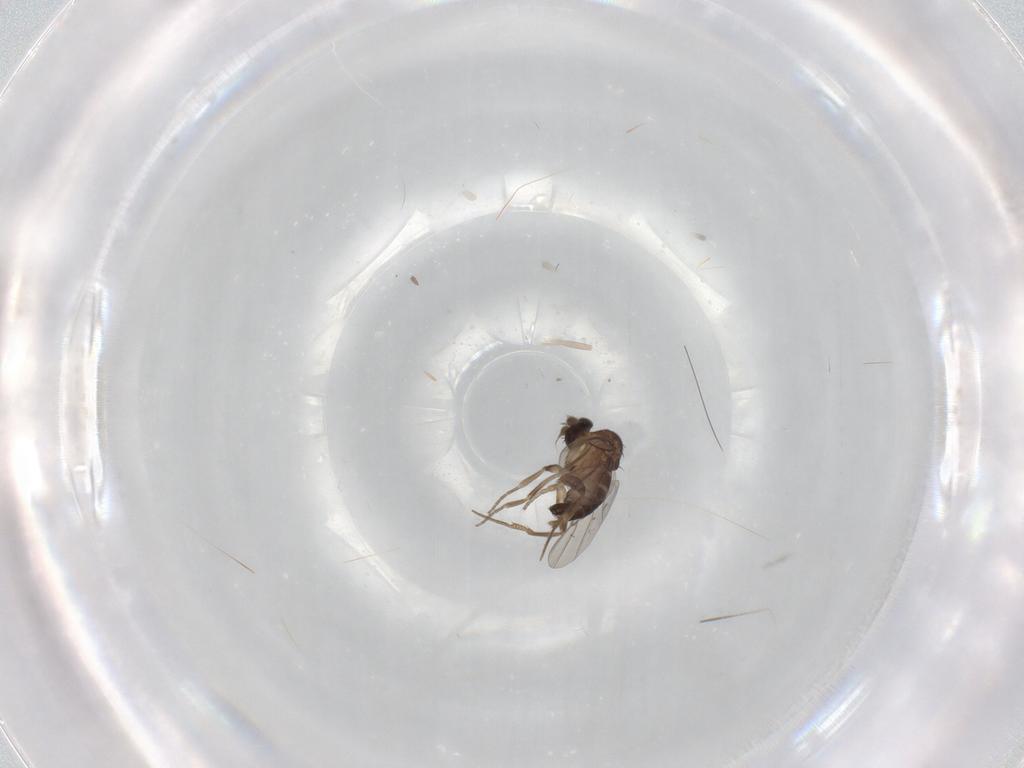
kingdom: Animalia
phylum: Arthropoda
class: Insecta
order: Diptera
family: Phoridae
